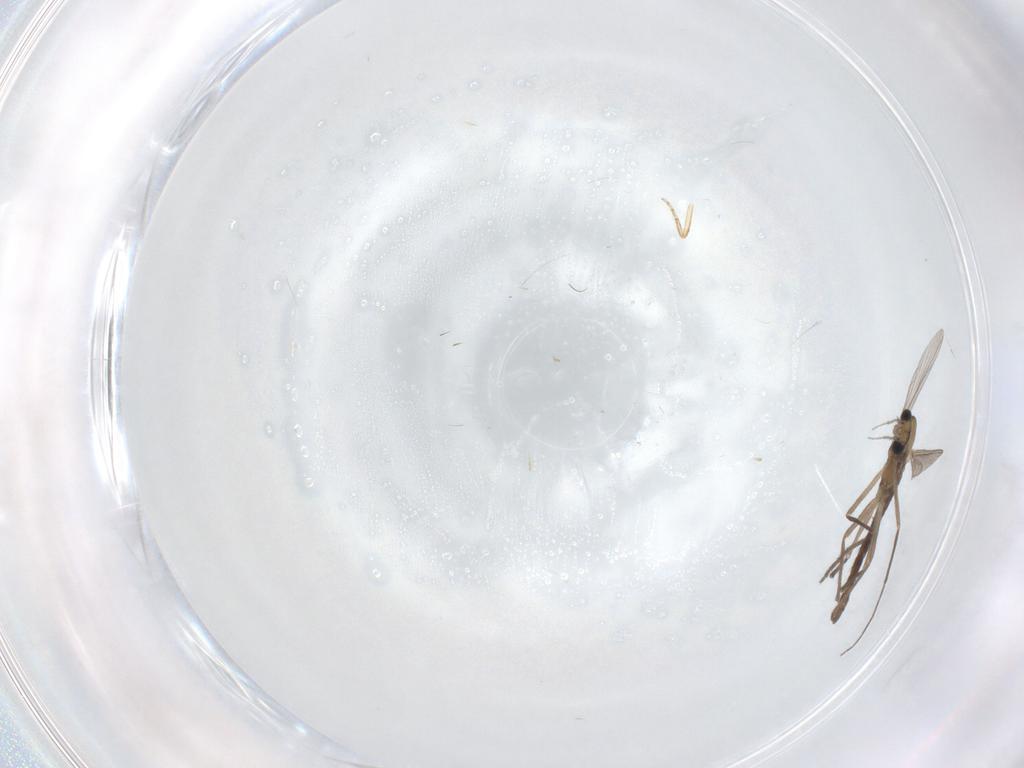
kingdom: Animalia
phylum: Arthropoda
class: Insecta
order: Diptera
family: Chironomidae
